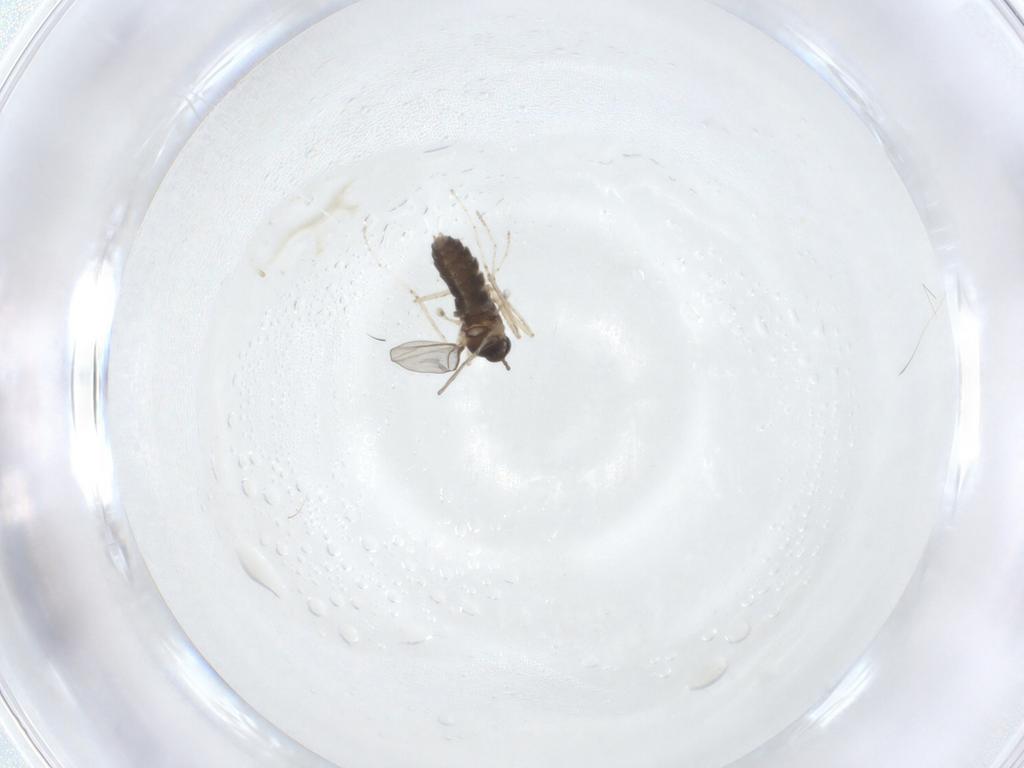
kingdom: Animalia
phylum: Arthropoda
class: Insecta
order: Diptera
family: Cecidomyiidae
